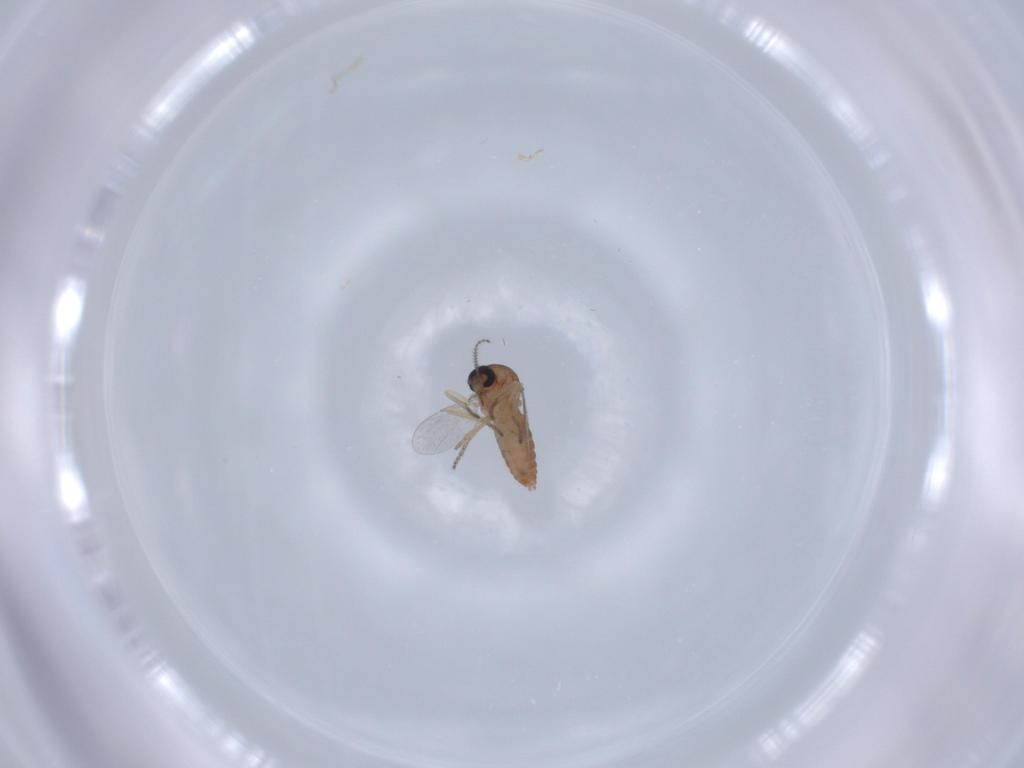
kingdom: Animalia
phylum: Arthropoda
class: Insecta
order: Diptera
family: Ceratopogonidae
